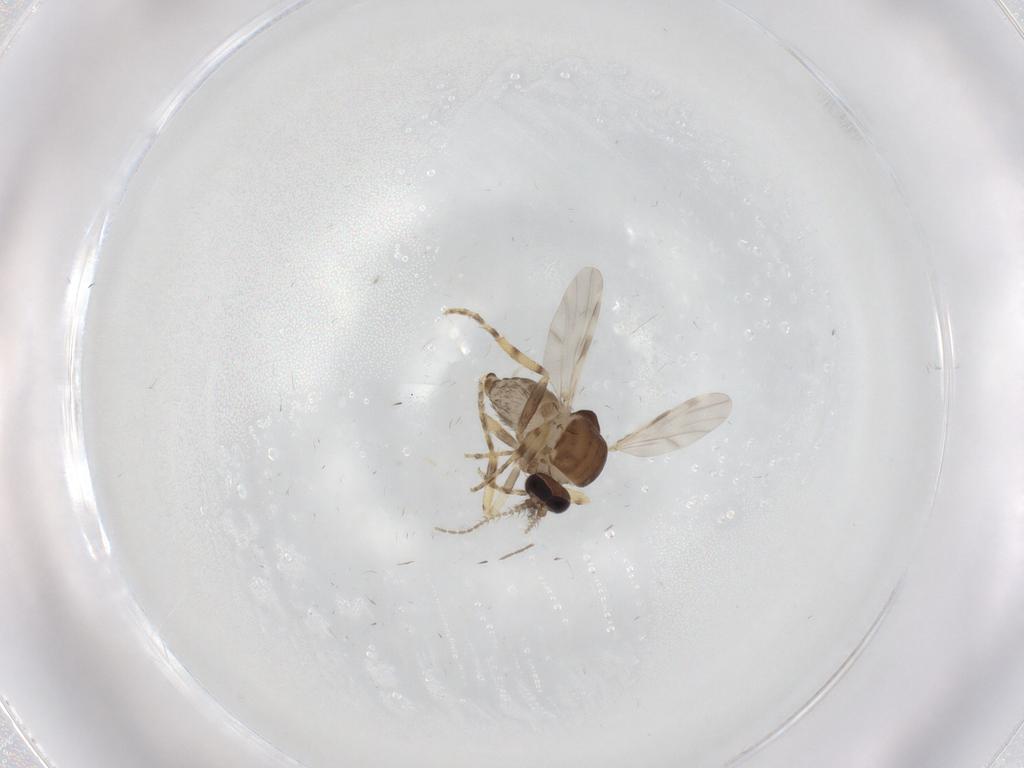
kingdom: Animalia
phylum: Arthropoda
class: Insecta
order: Diptera
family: Ceratopogonidae
